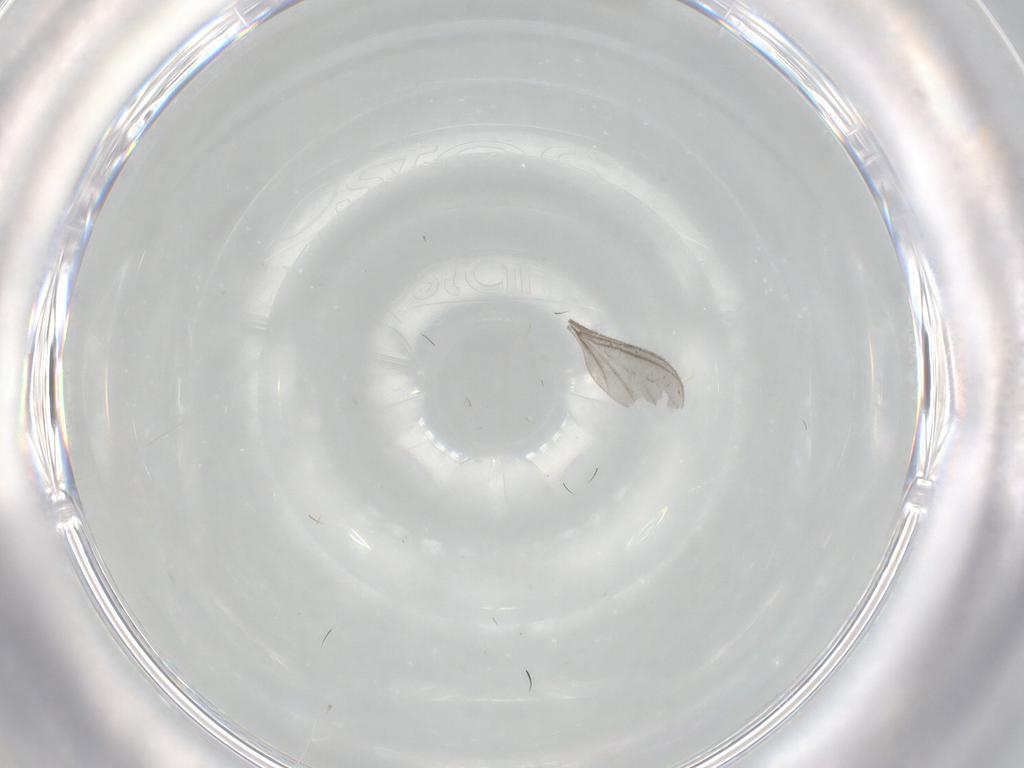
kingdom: Animalia
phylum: Arthropoda
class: Insecta
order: Diptera
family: Cecidomyiidae
